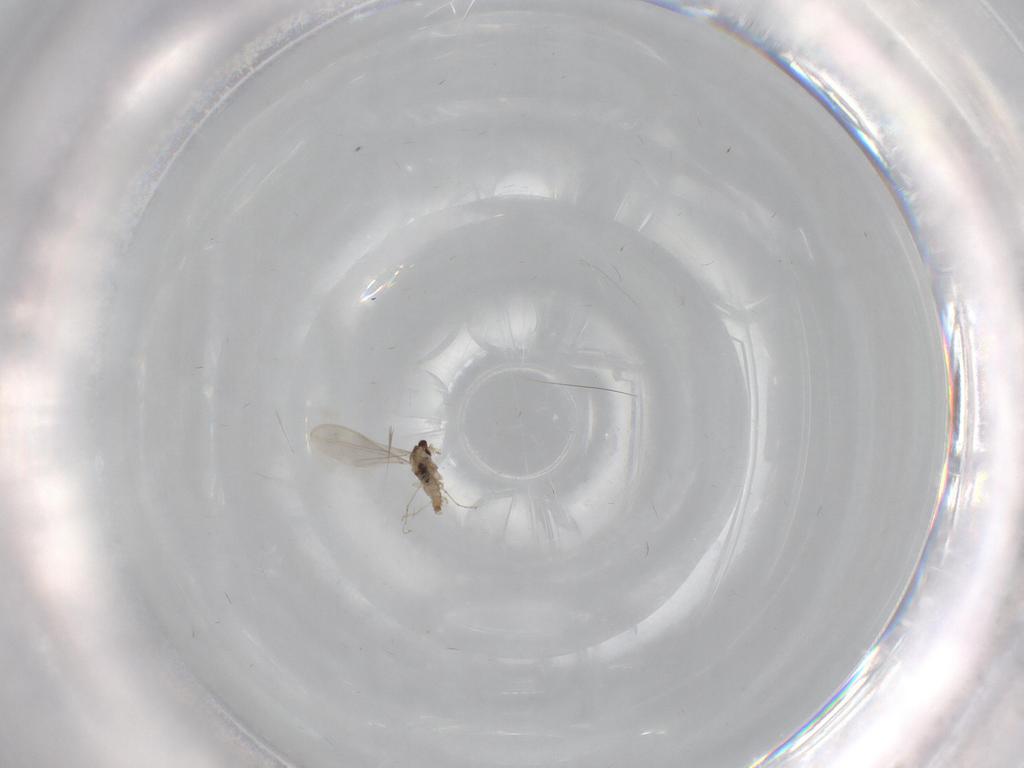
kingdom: Animalia
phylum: Arthropoda
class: Insecta
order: Diptera
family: Cecidomyiidae
